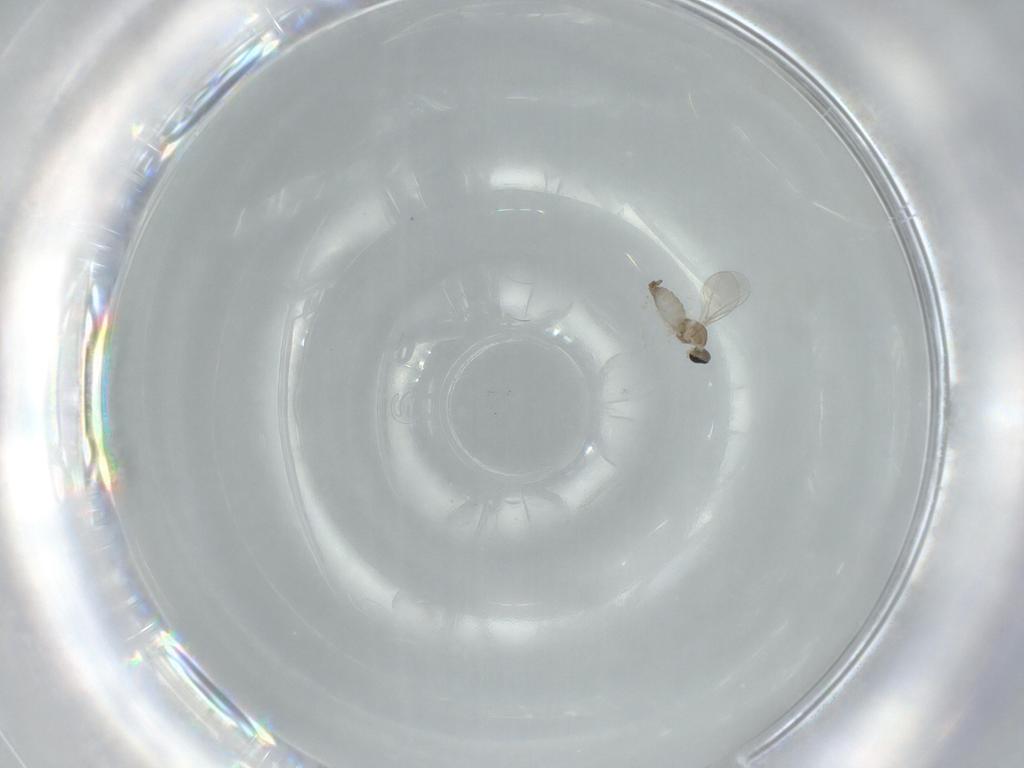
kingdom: Animalia
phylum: Arthropoda
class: Insecta
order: Diptera
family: Cecidomyiidae
